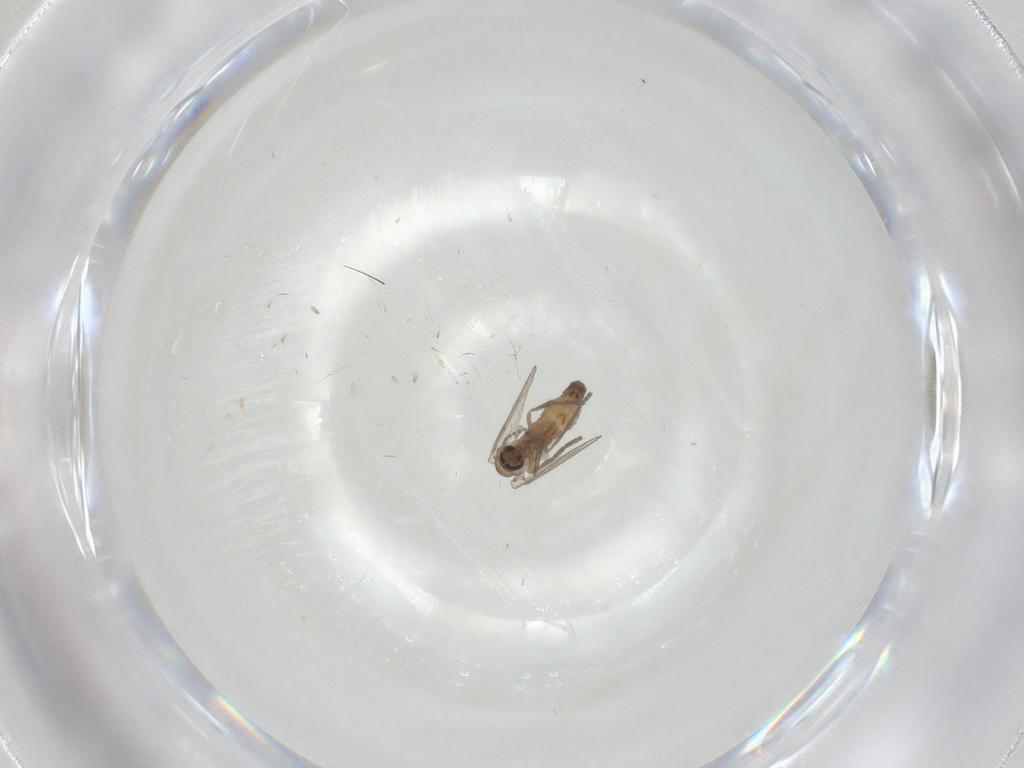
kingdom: Animalia
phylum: Arthropoda
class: Insecta
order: Diptera
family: Psychodidae
